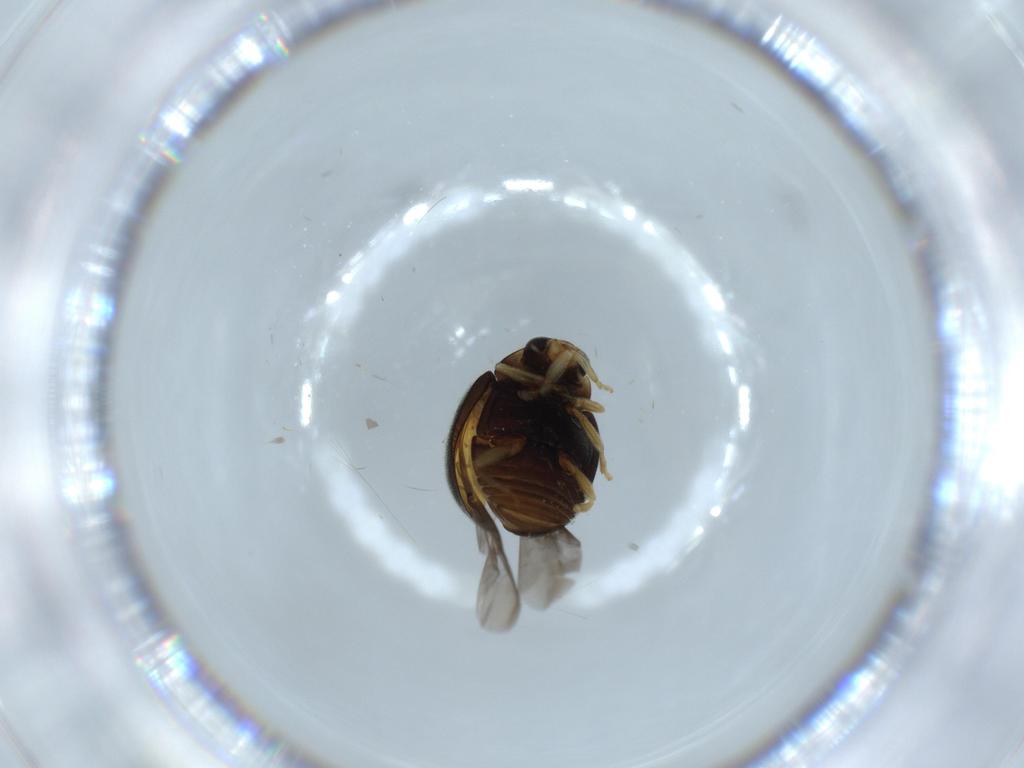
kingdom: Animalia
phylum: Arthropoda
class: Insecta
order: Coleoptera
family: Coccinellidae
